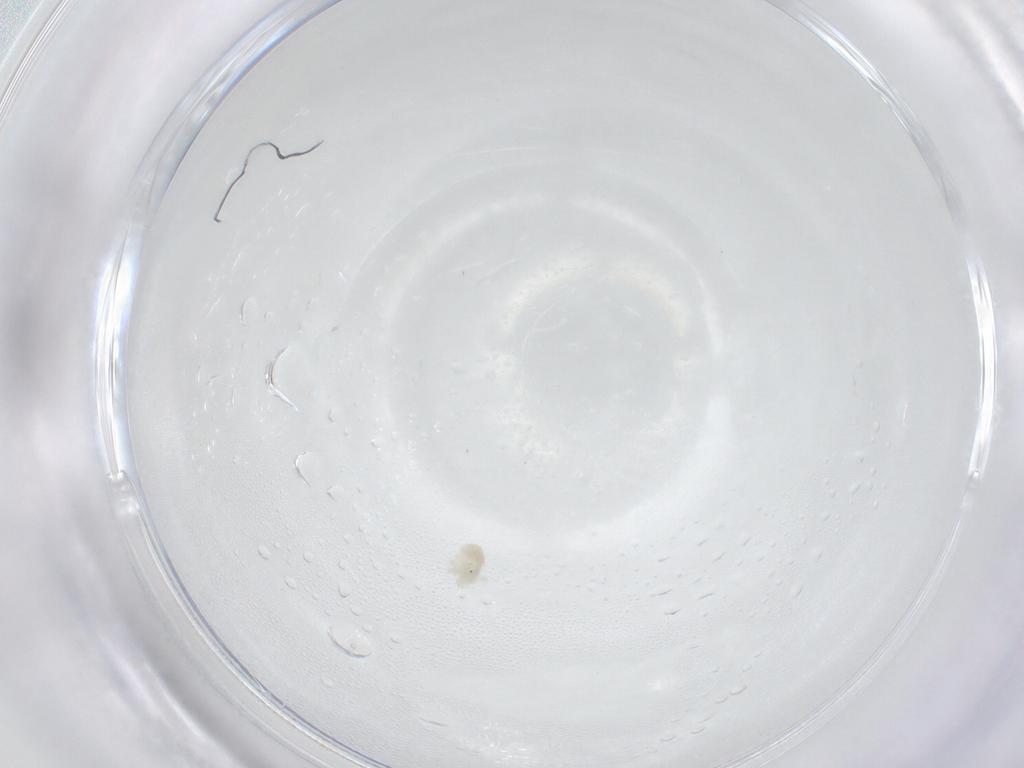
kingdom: Animalia
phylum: Arthropoda
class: Arachnida
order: Trombidiformes
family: Anystidae
